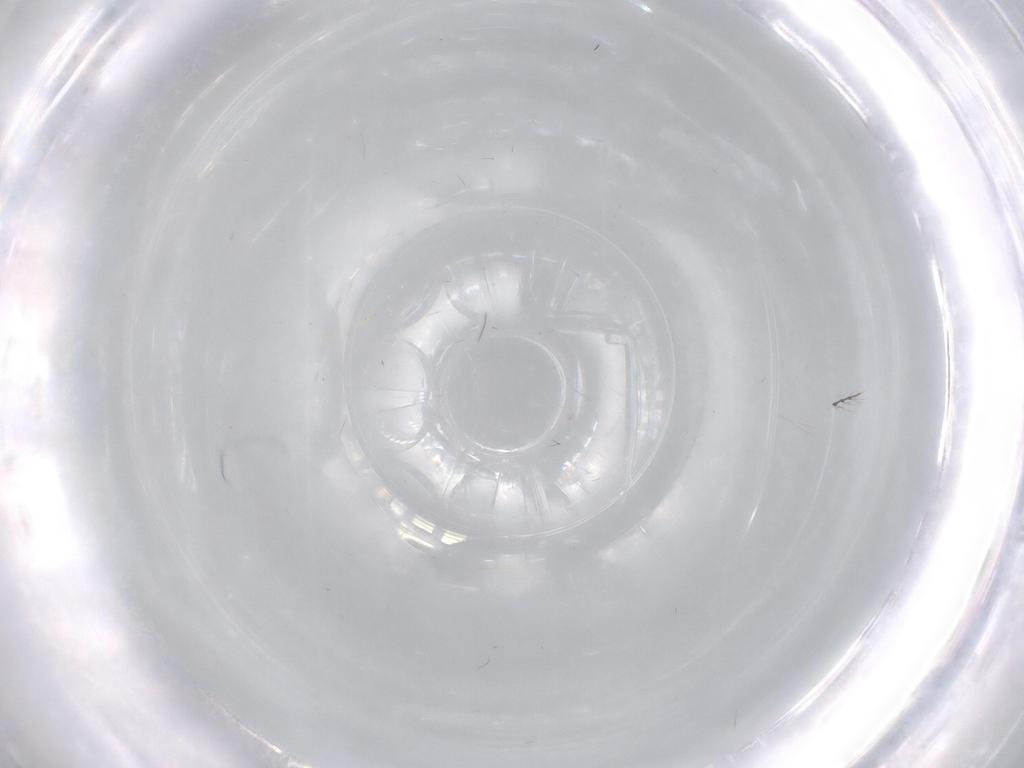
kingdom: Animalia
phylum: Arthropoda
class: Insecta
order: Diptera
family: Cecidomyiidae
